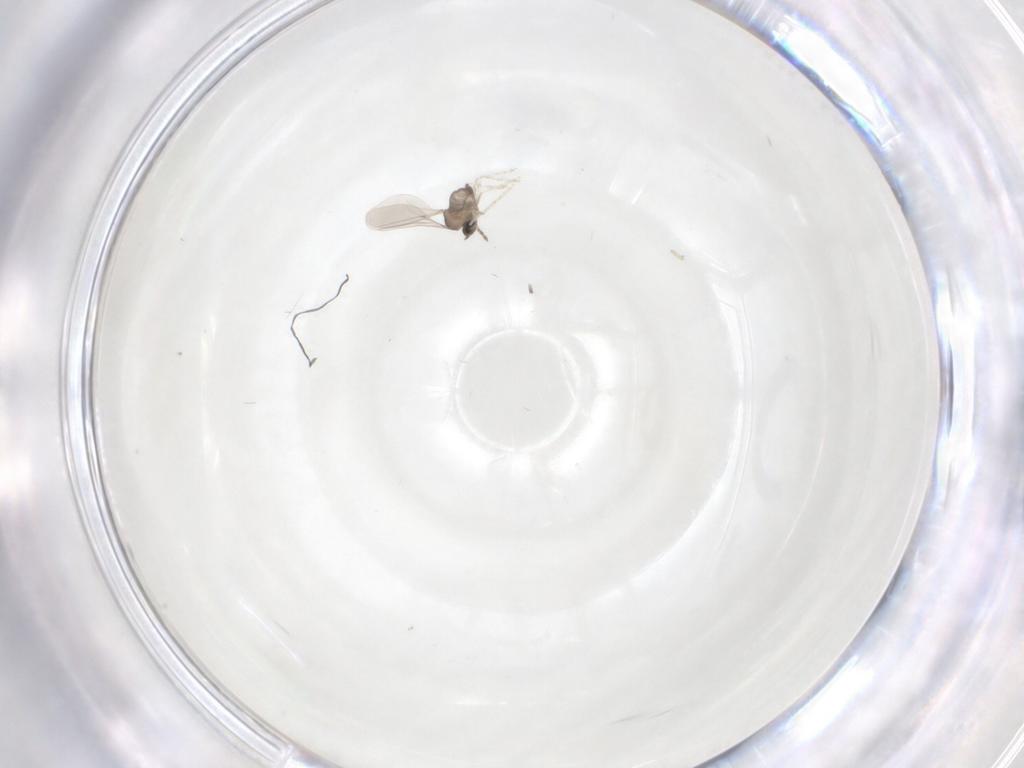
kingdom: Animalia
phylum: Arthropoda
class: Insecta
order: Diptera
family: Cecidomyiidae
